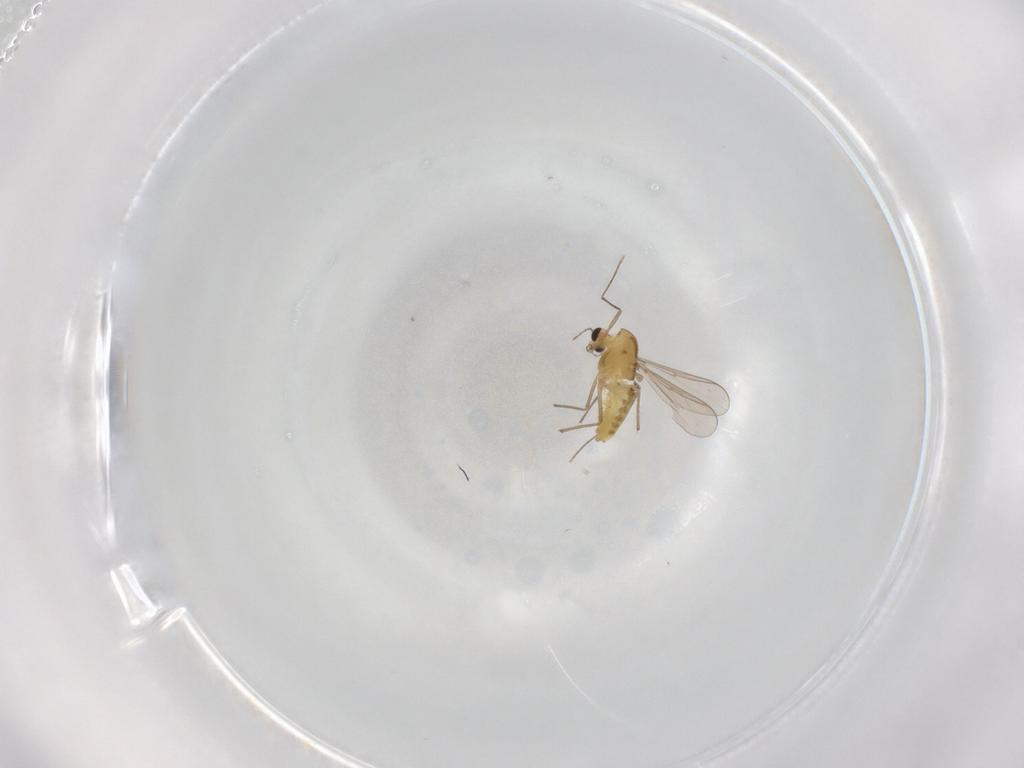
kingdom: Animalia
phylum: Arthropoda
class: Insecta
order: Diptera
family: Chironomidae
